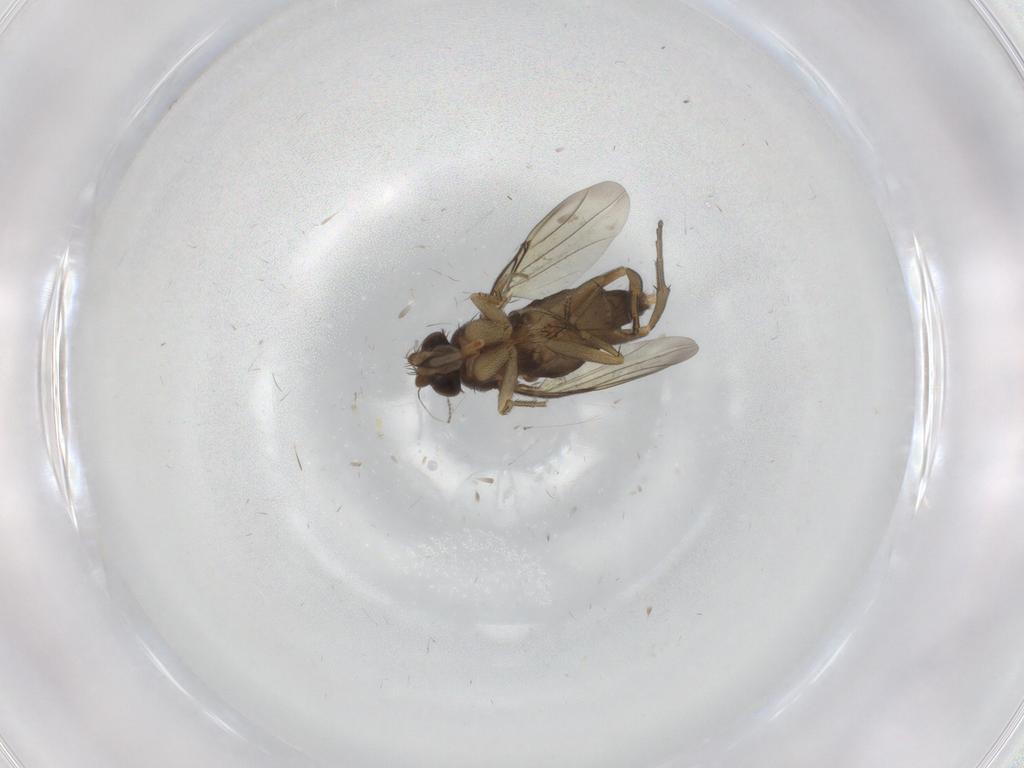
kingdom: Animalia
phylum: Arthropoda
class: Insecta
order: Diptera
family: Phoridae
